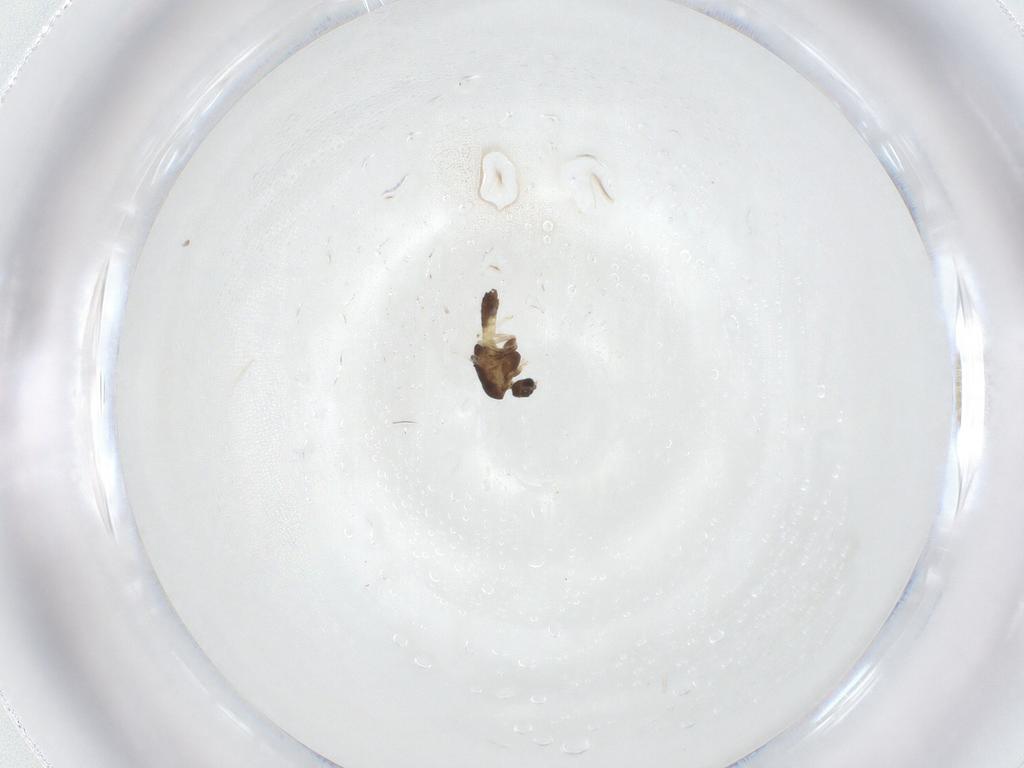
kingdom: Animalia
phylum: Arthropoda
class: Insecta
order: Diptera
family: Chironomidae
